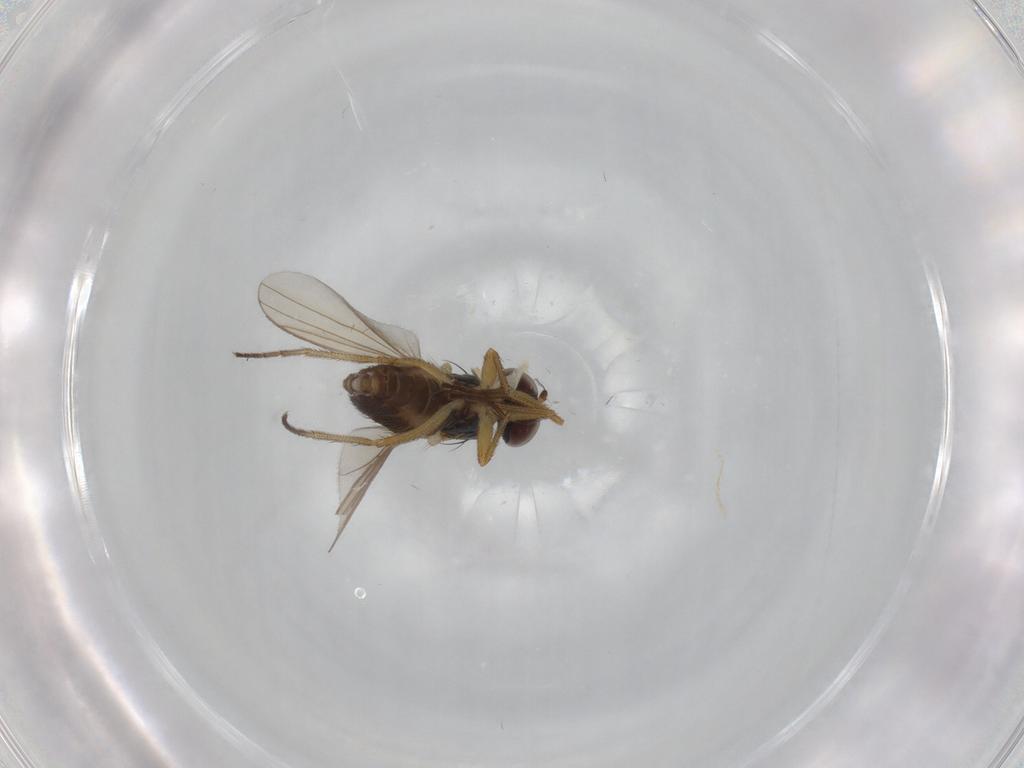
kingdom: Animalia
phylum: Arthropoda
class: Insecta
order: Diptera
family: Dolichopodidae
